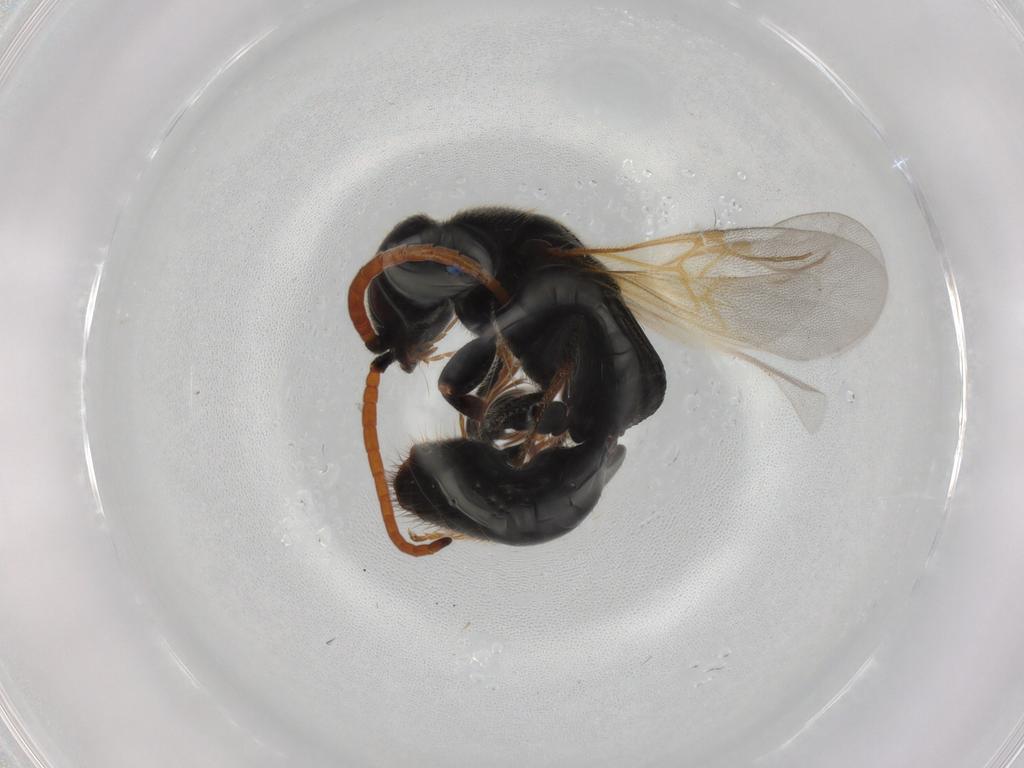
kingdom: Animalia
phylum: Arthropoda
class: Insecta
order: Hymenoptera
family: Bethylidae
